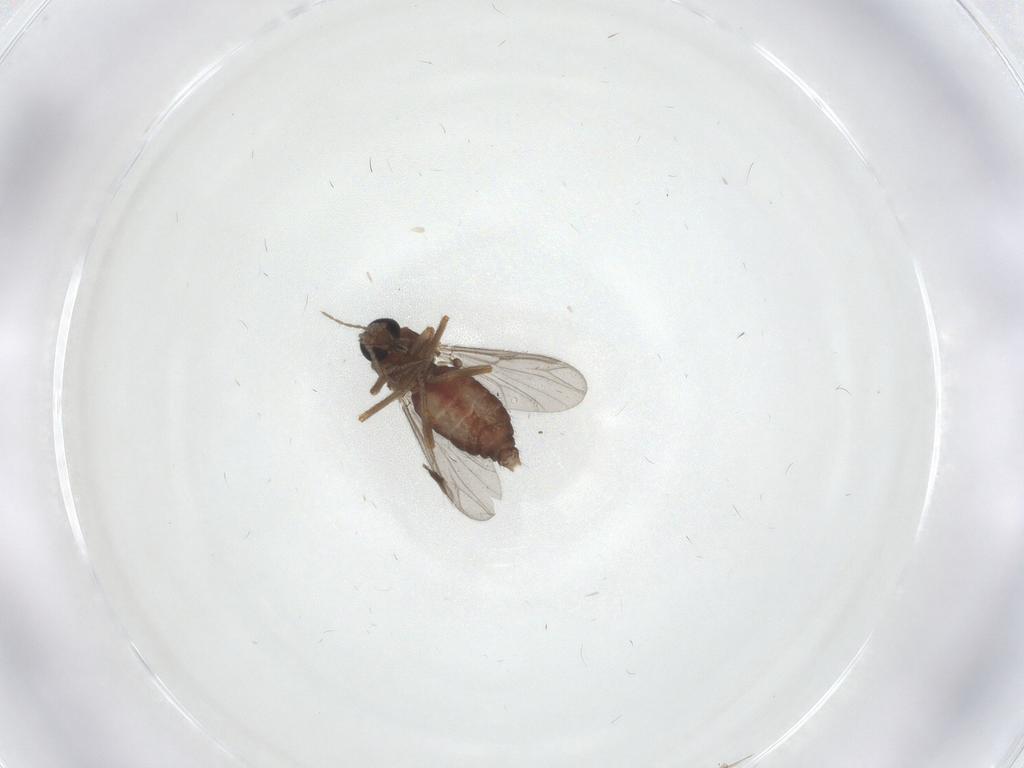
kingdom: Animalia
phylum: Arthropoda
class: Insecta
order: Diptera
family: Ceratopogonidae
